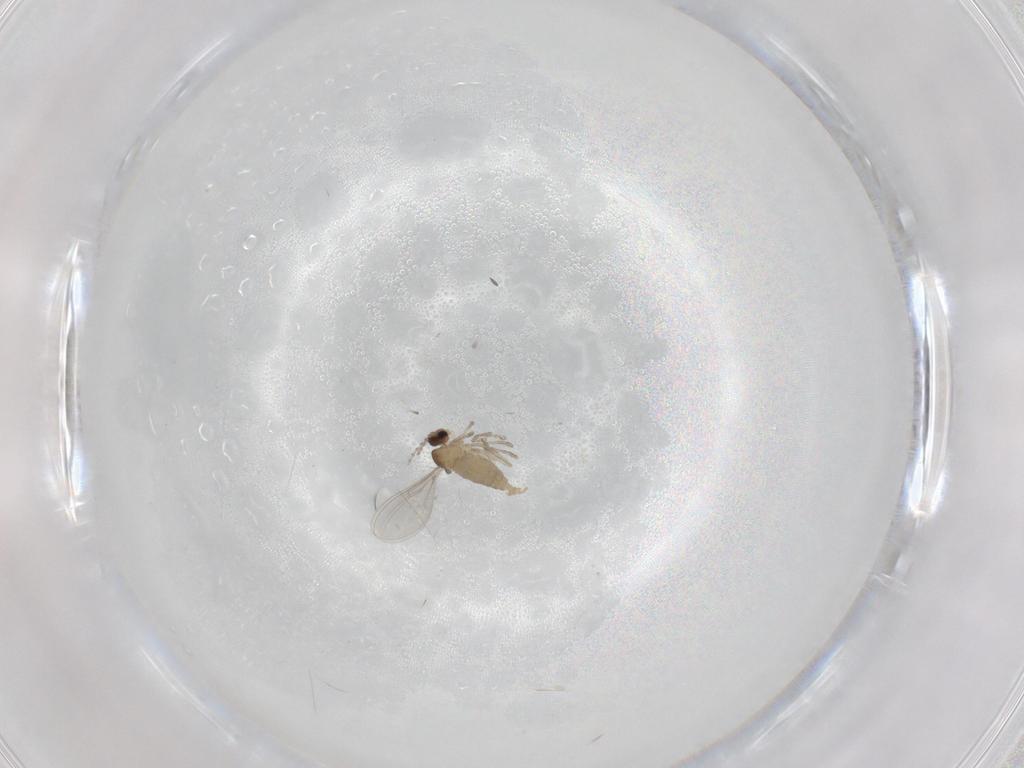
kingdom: Animalia
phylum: Arthropoda
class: Insecta
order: Diptera
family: Cecidomyiidae
